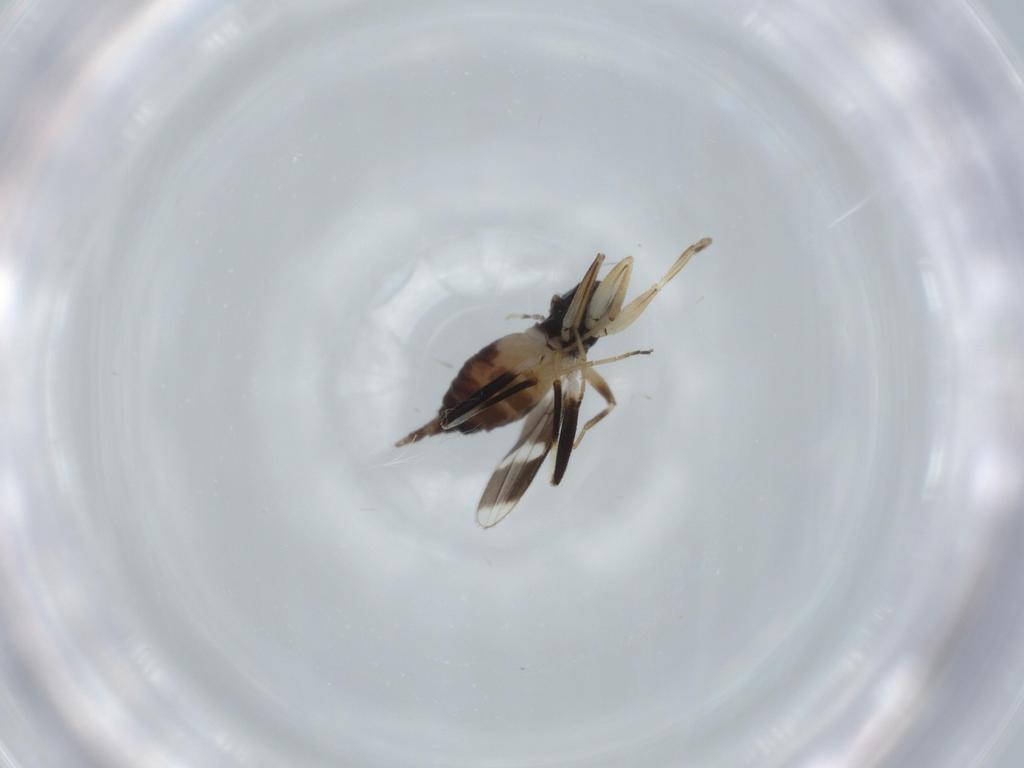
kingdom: Animalia
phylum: Arthropoda
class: Insecta
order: Diptera
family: Hybotidae
